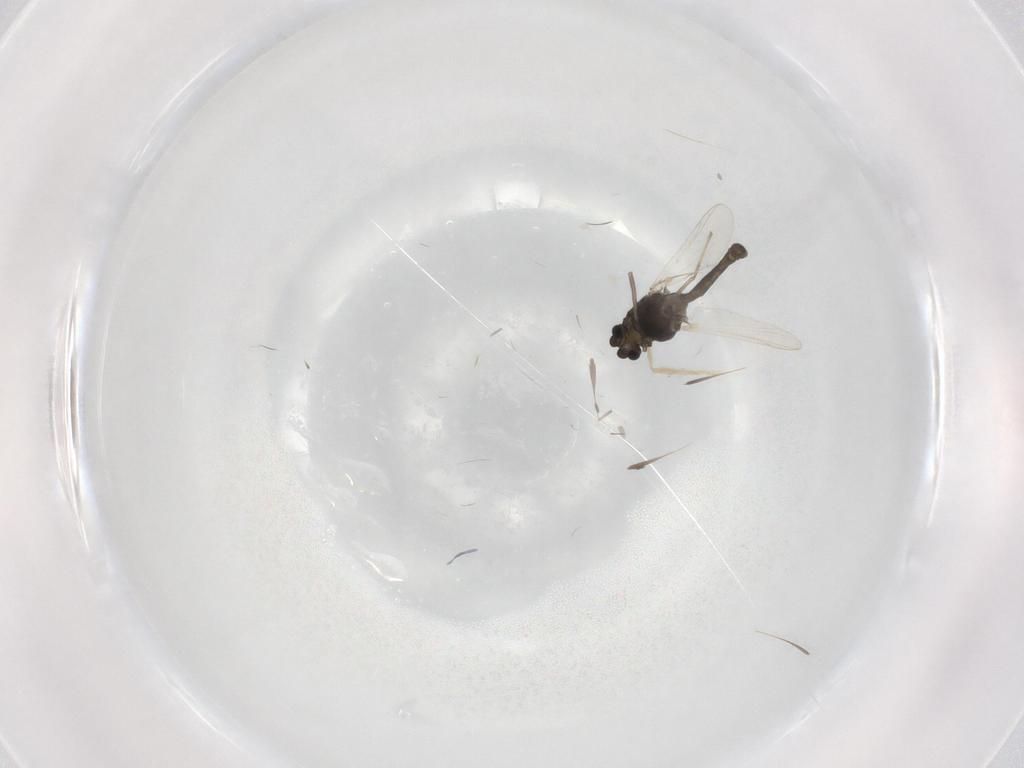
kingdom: Animalia
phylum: Arthropoda
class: Insecta
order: Diptera
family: Chironomidae
